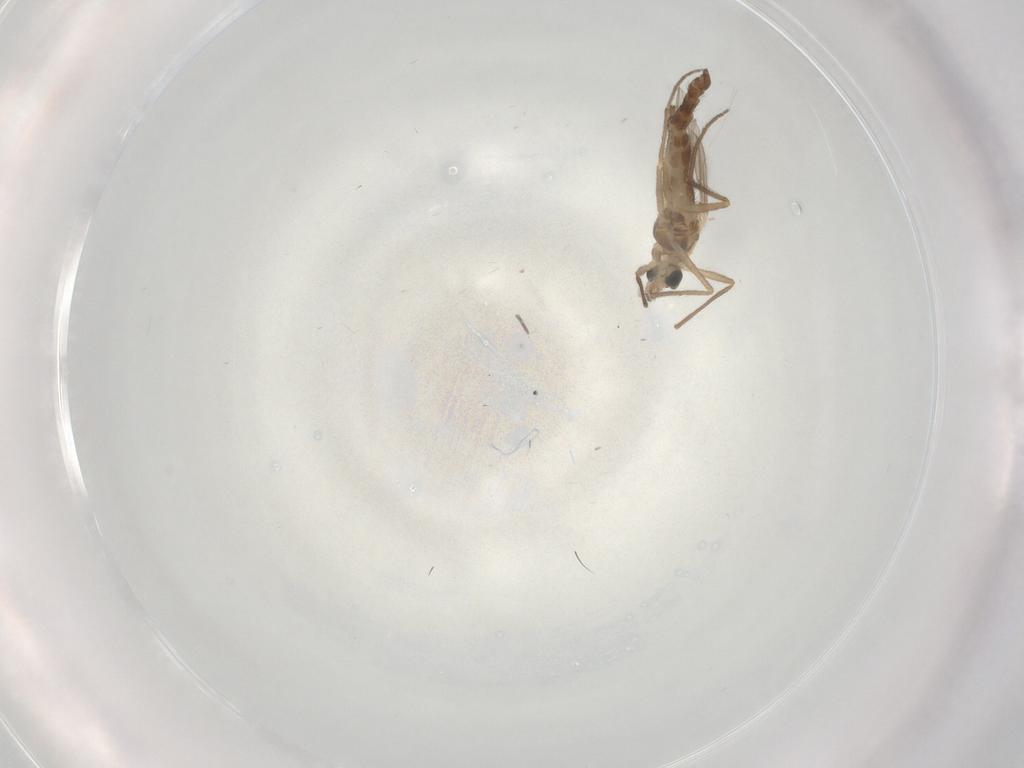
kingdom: Animalia
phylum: Arthropoda
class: Insecta
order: Diptera
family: Chironomidae
